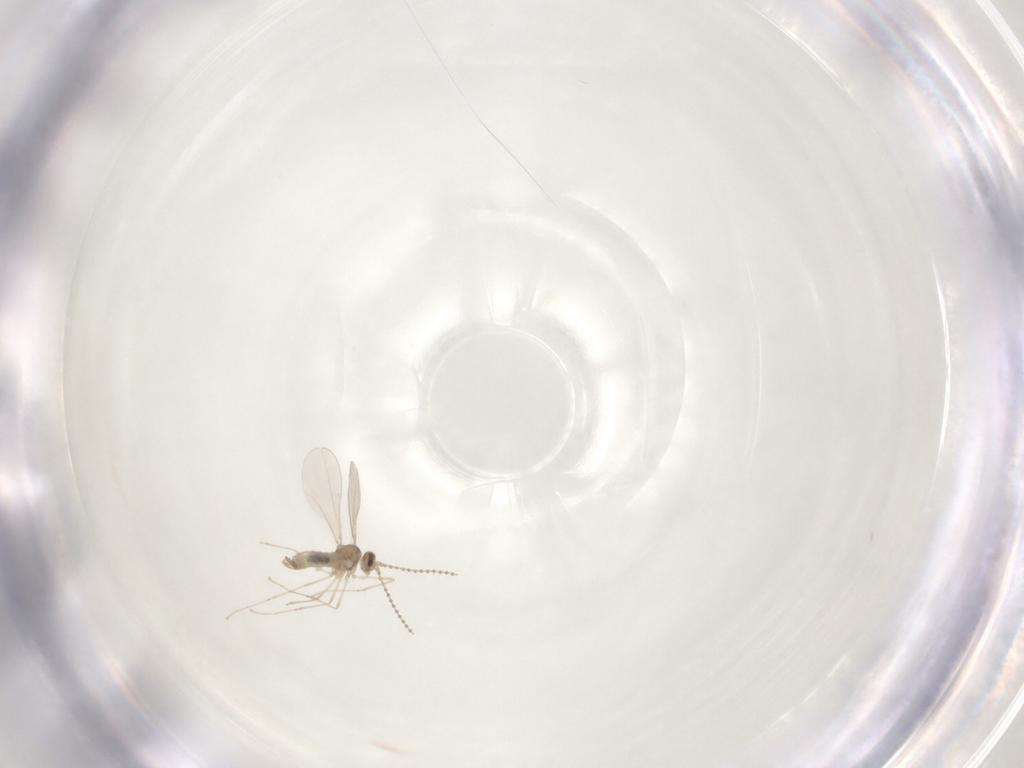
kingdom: Animalia
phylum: Arthropoda
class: Insecta
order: Diptera
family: Cecidomyiidae
